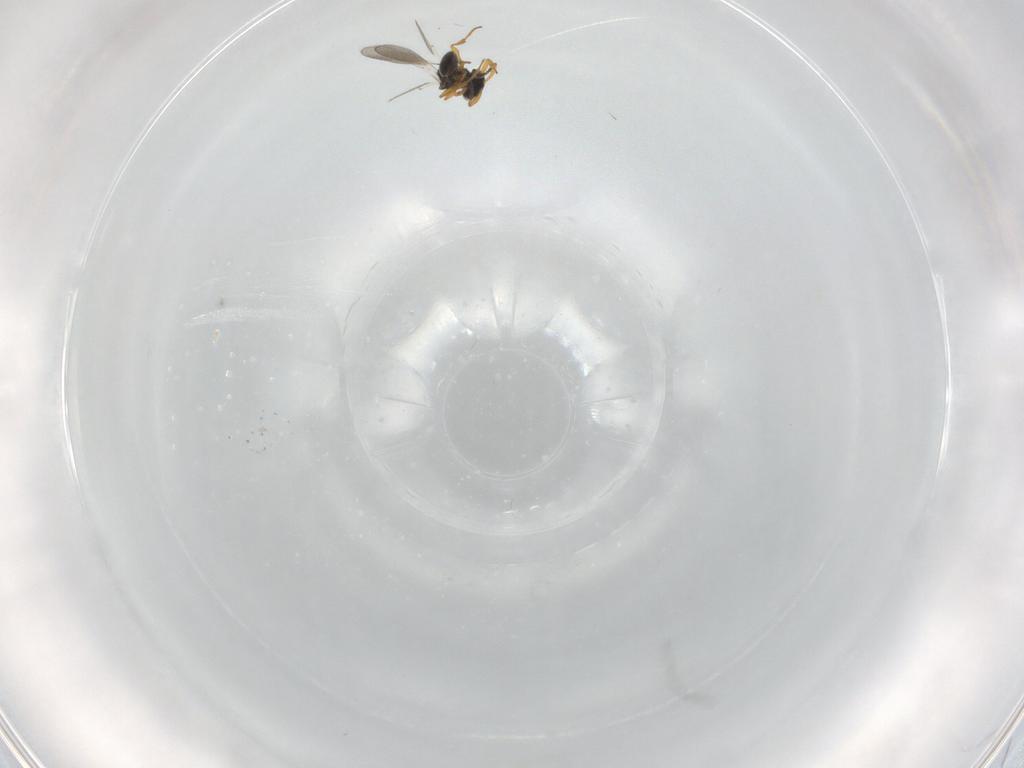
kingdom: Animalia
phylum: Arthropoda
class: Insecta
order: Hymenoptera
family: Platygastridae
